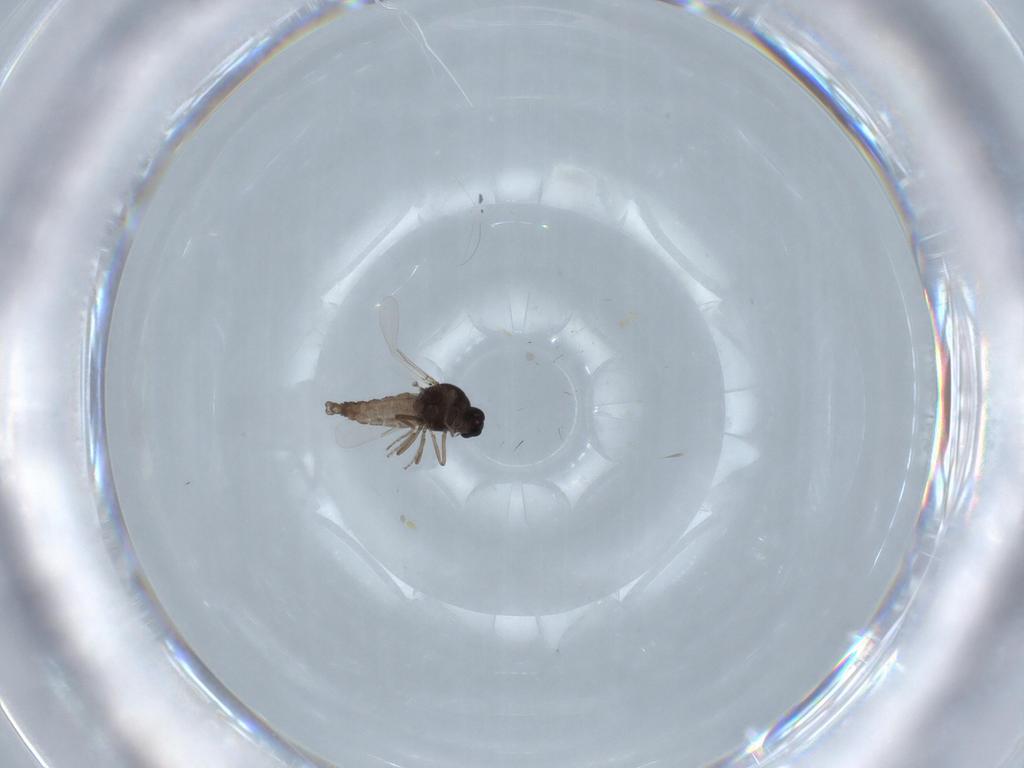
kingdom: Animalia
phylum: Arthropoda
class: Insecta
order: Diptera
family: Ceratopogonidae
